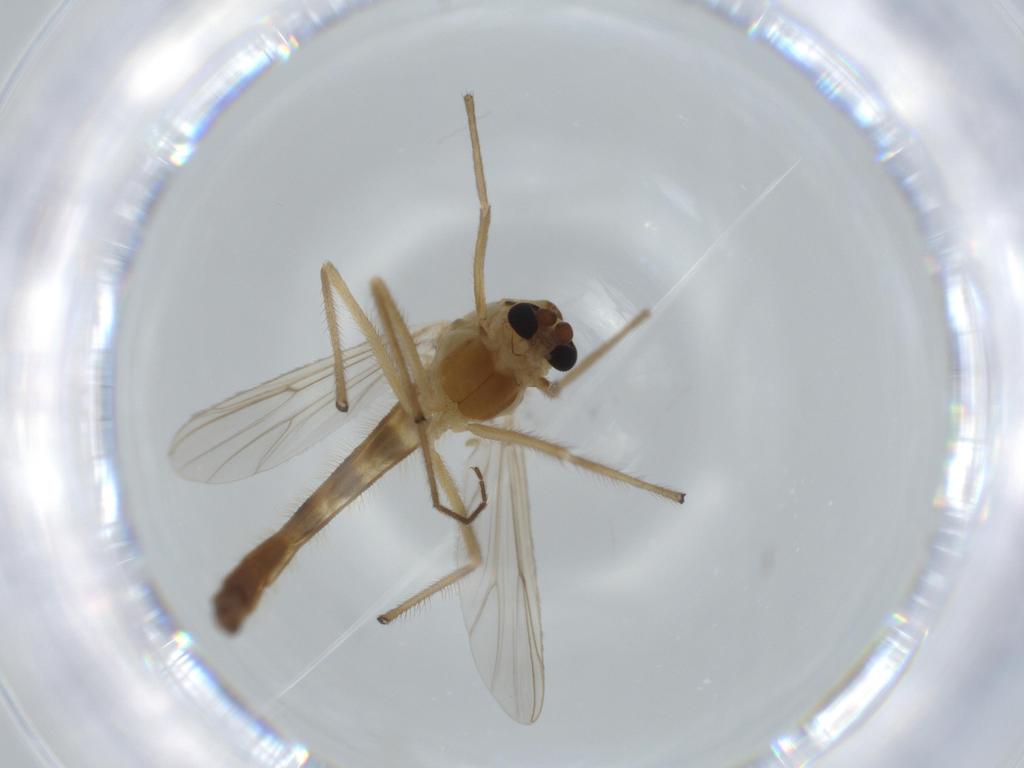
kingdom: Animalia
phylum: Arthropoda
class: Insecta
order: Diptera
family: Chironomidae
